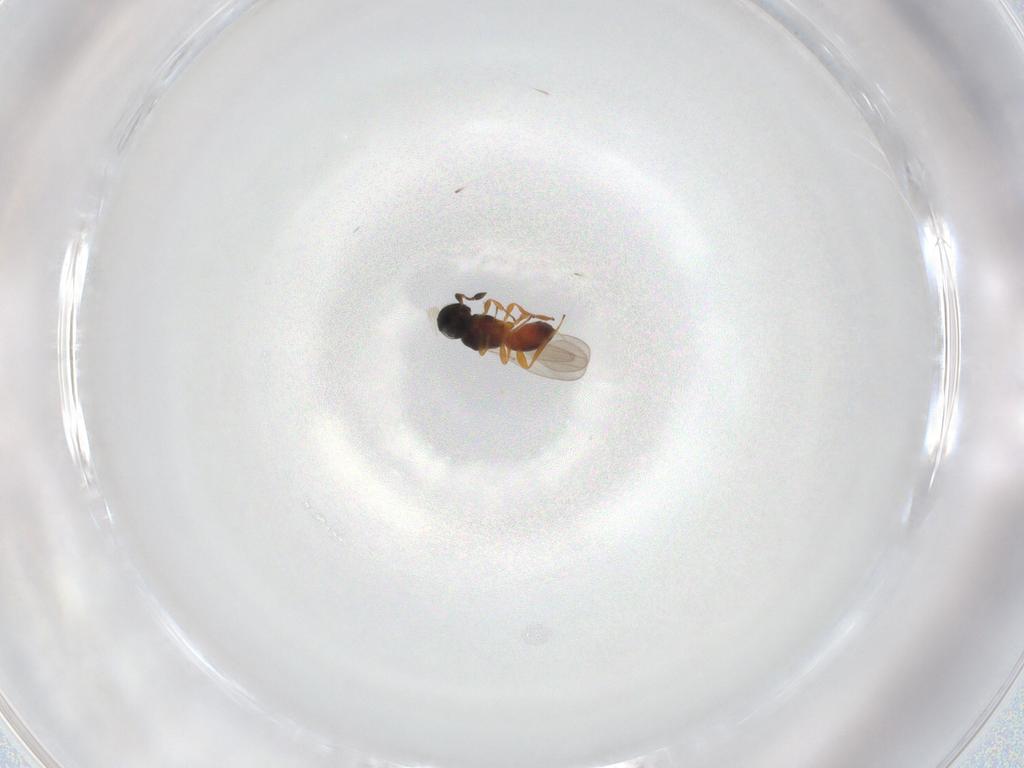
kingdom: Animalia
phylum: Arthropoda
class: Insecta
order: Hymenoptera
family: Platygastridae
